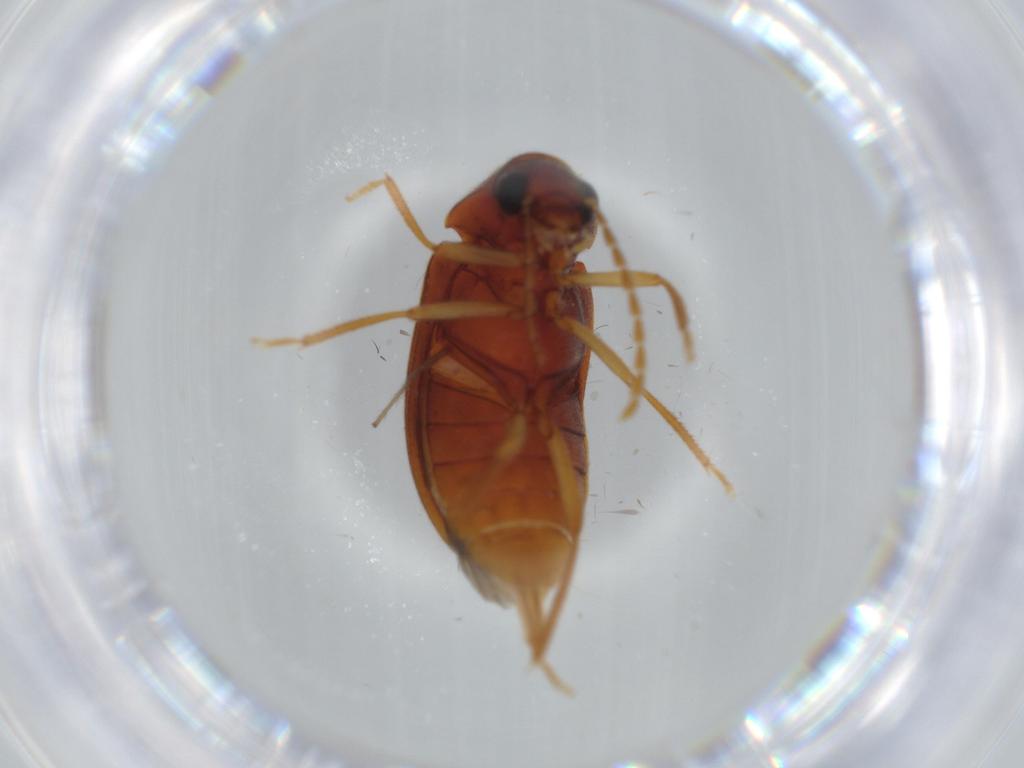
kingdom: Animalia
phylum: Arthropoda
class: Insecta
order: Coleoptera
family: Ptilodactylidae
